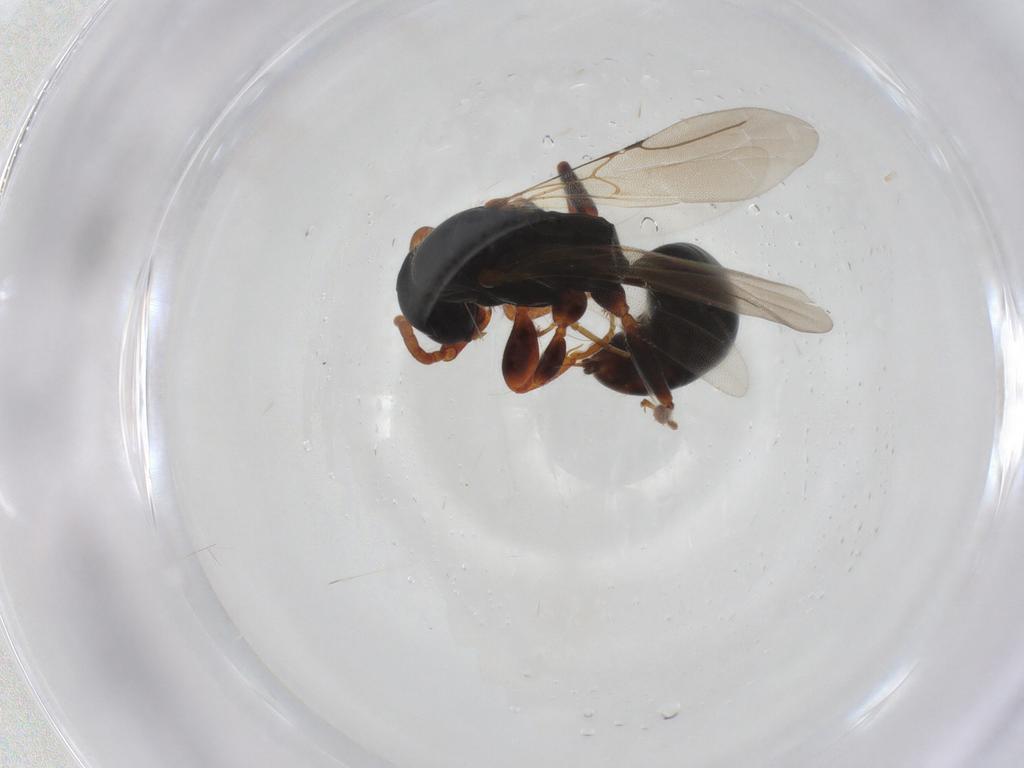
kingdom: Animalia
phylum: Arthropoda
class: Insecta
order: Hymenoptera
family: Bethylidae
